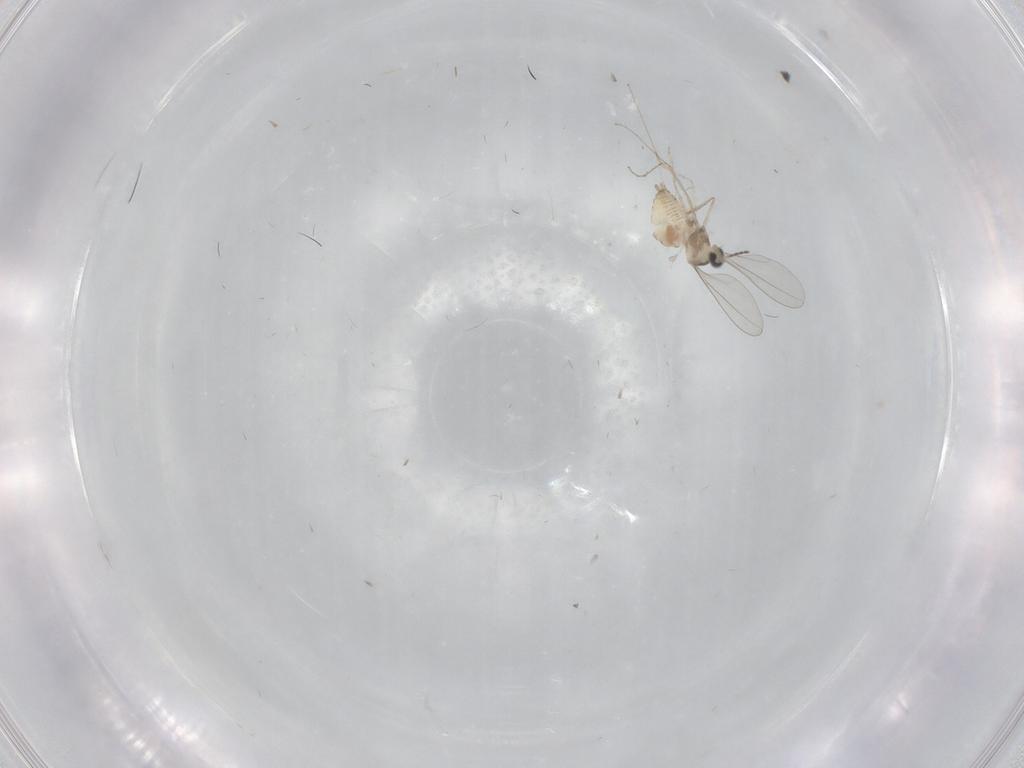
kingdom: Animalia
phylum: Arthropoda
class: Insecta
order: Diptera
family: Cecidomyiidae
